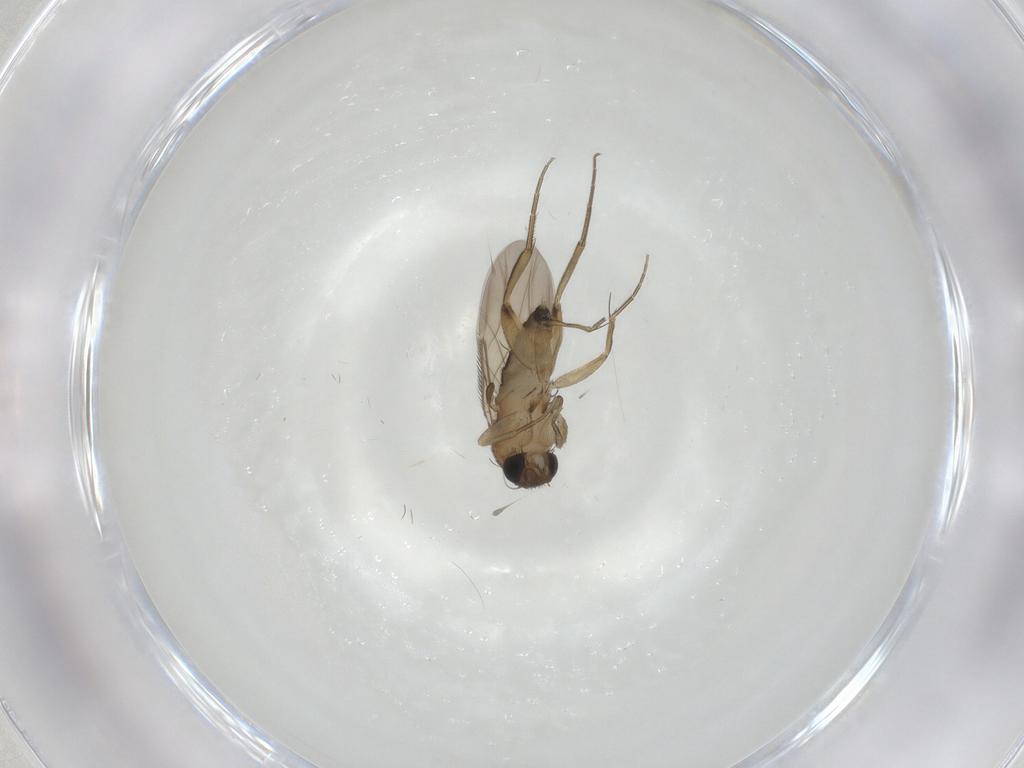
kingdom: Animalia
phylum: Arthropoda
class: Insecta
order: Diptera
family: Phoridae
